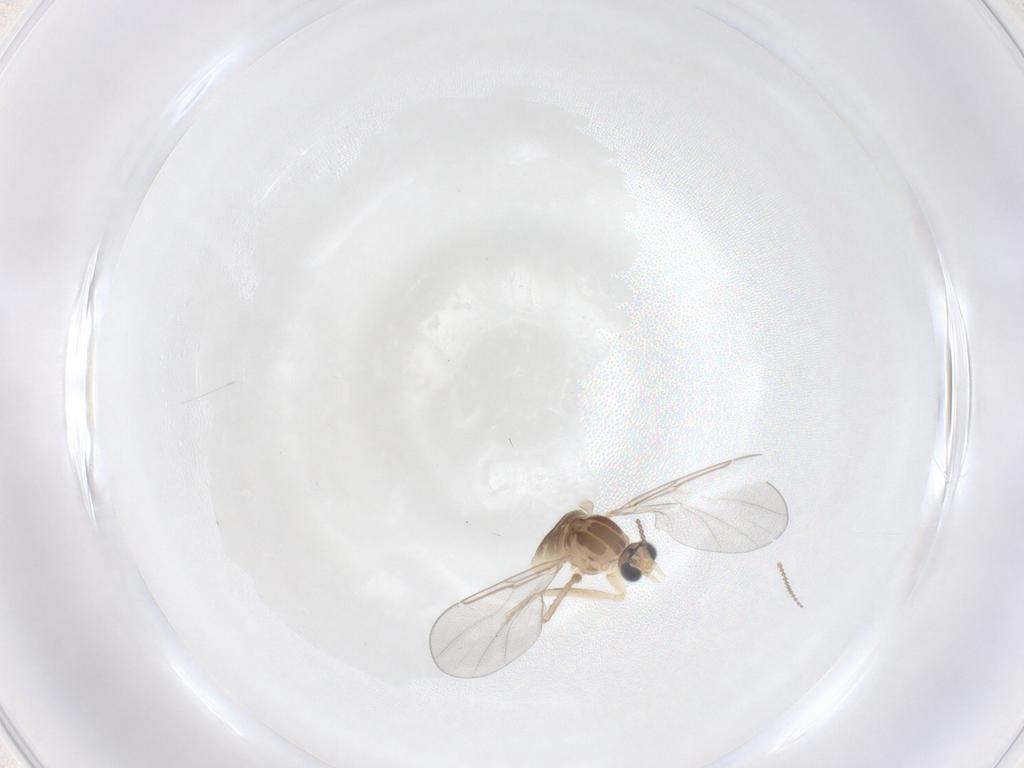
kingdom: Animalia
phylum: Arthropoda
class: Insecta
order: Diptera
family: Cecidomyiidae
